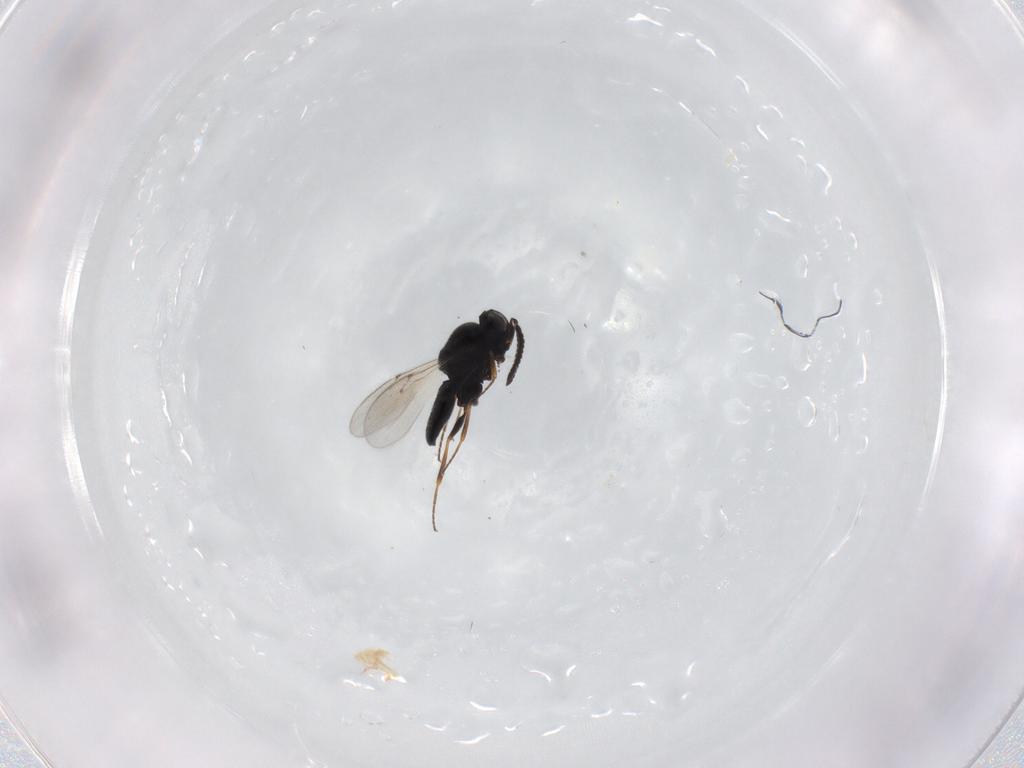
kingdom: Animalia
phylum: Arthropoda
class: Insecta
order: Hymenoptera
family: Scelionidae
